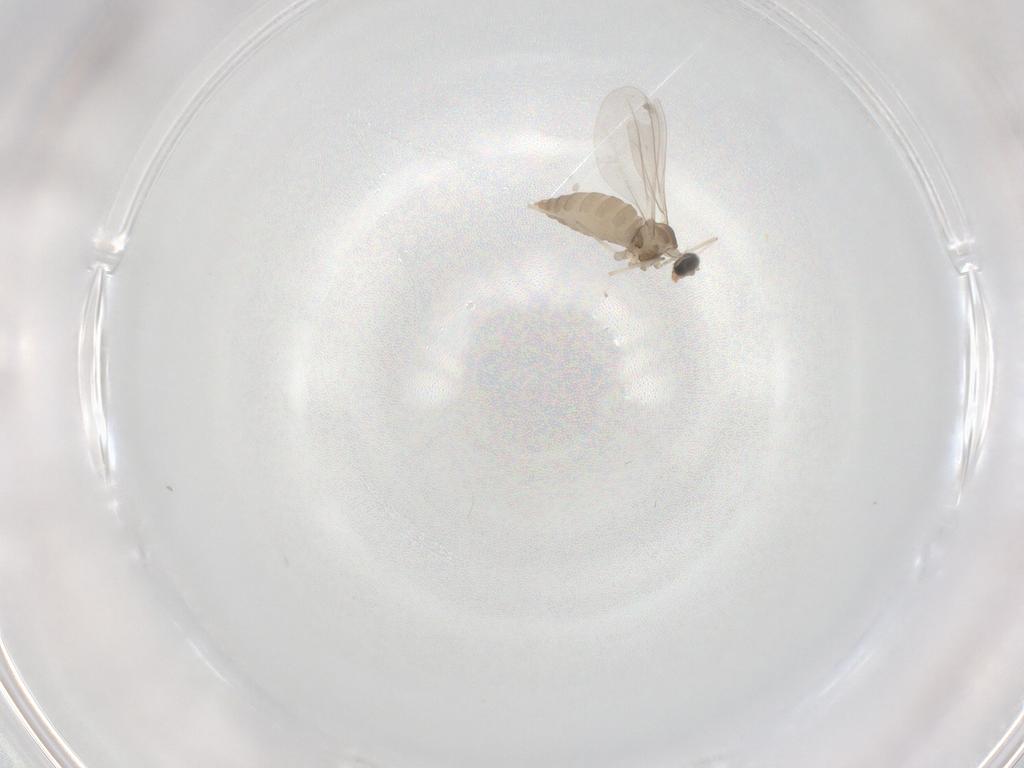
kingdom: Animalia
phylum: Arthropoda
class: Insecta
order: Diptera
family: Cecidomyiidae
